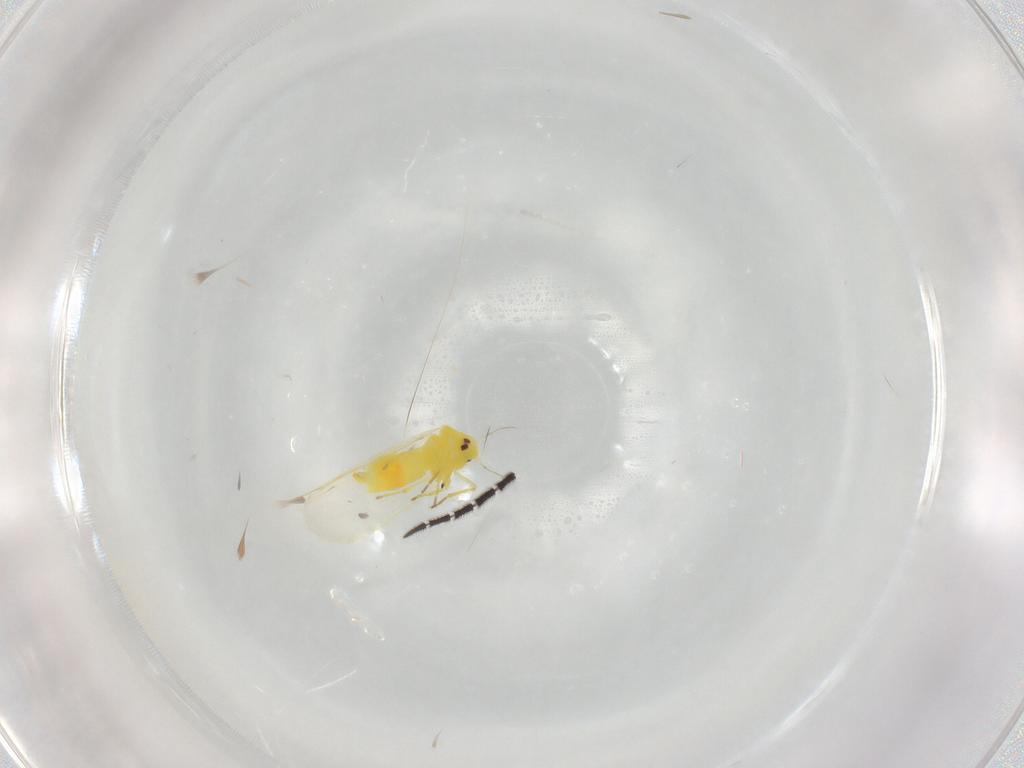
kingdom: Animalia
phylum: Arthropoda
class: Insecta
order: Hemiptera
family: Aleyrodidae
